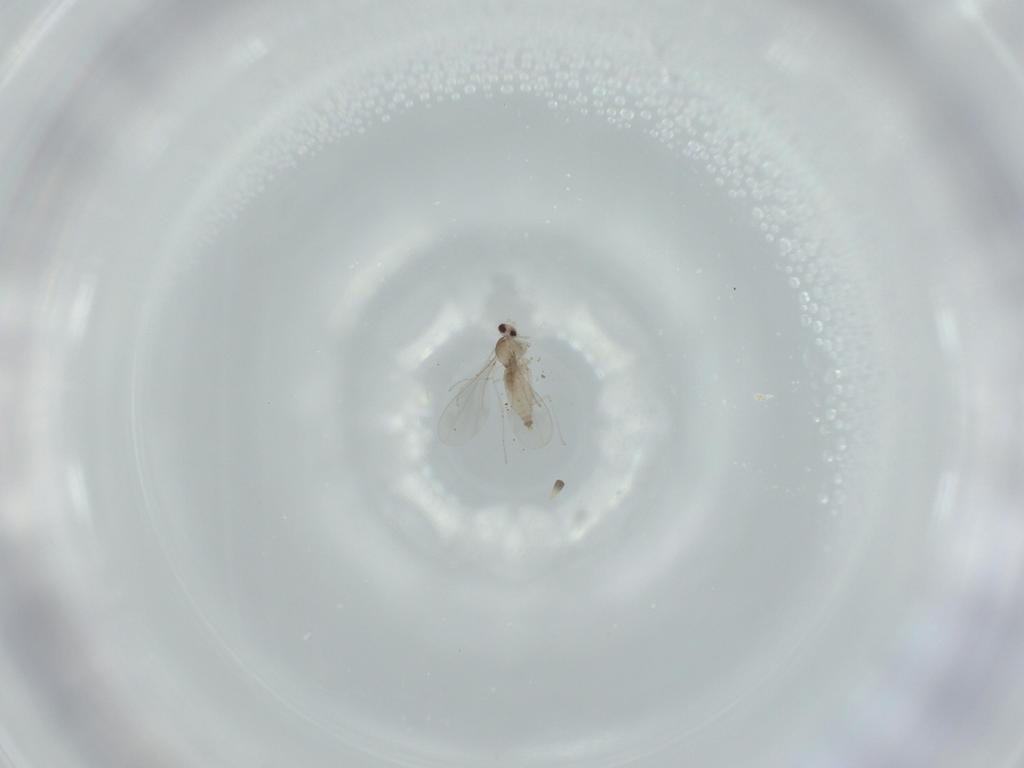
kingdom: Animalia
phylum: Arthropoda
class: Insecta
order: Diptera
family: Cecidomyiidae
